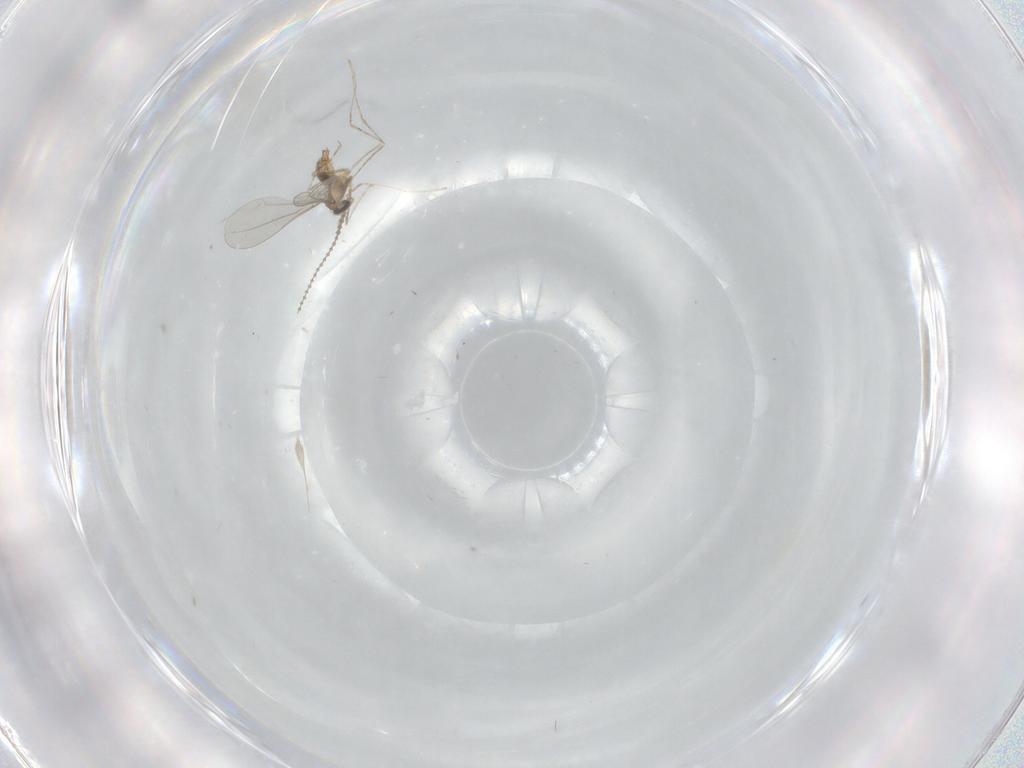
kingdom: Animalia
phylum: Arthropoda
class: Insecta
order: Diptera
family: Cecidomyiidae
